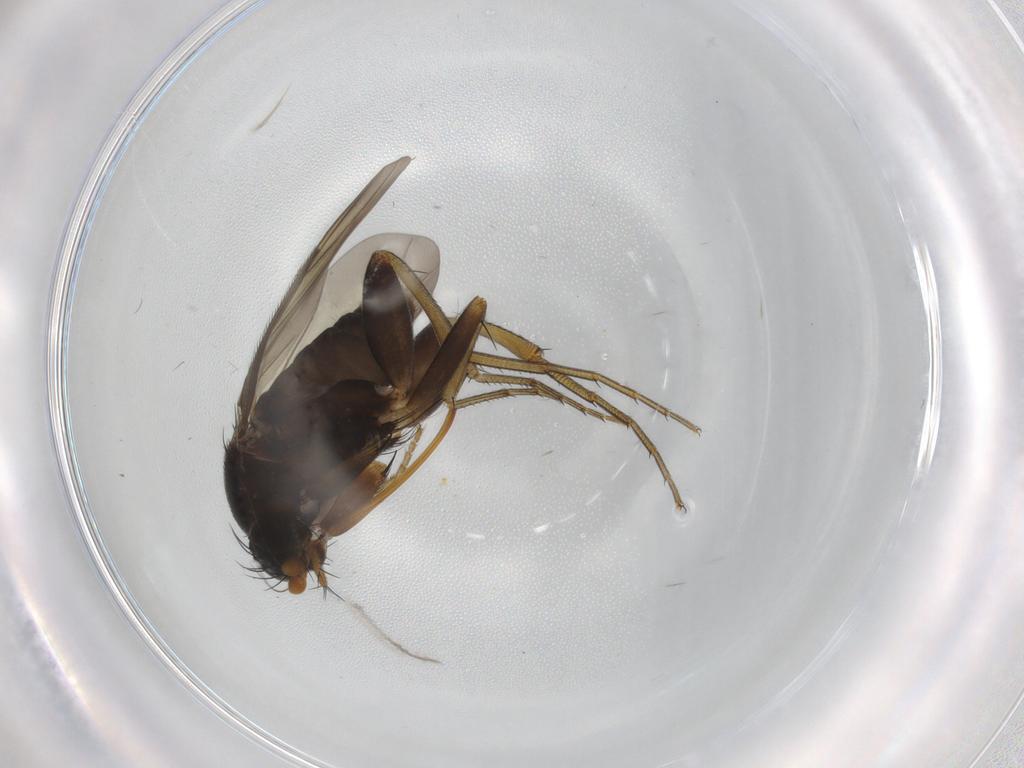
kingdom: Animalia
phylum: Arthropoda
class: Insecta
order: Diptera
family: Phoridae
